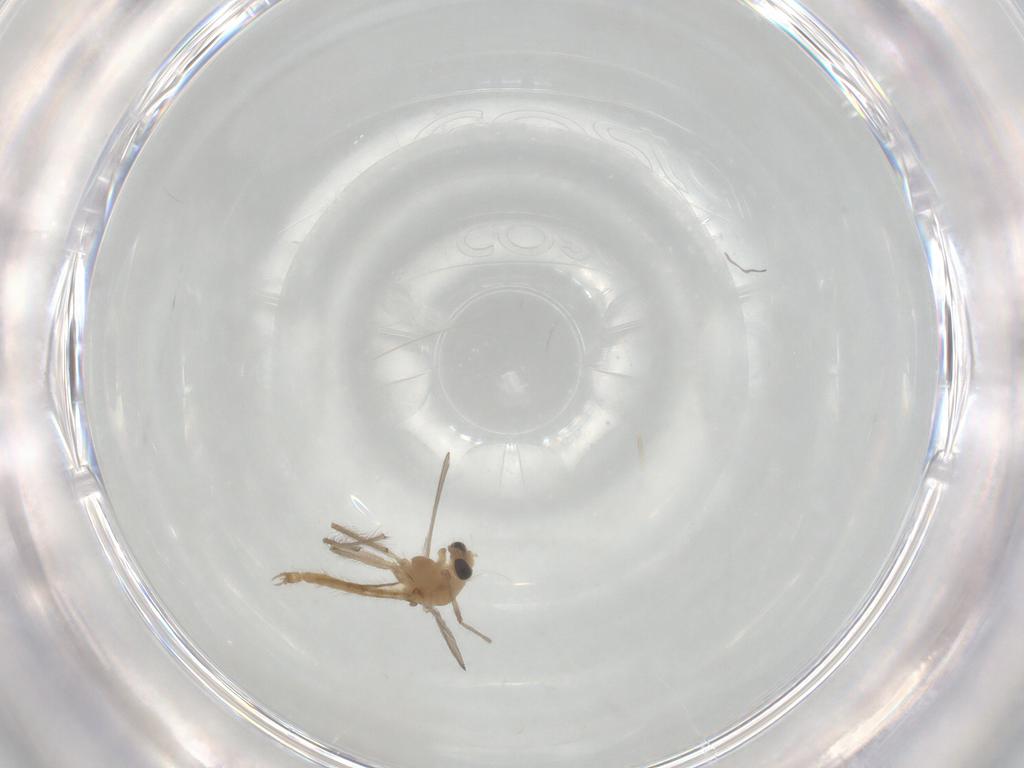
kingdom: Animalia
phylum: Arthropoda
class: Insecta
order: Diptera
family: Chironomidae
